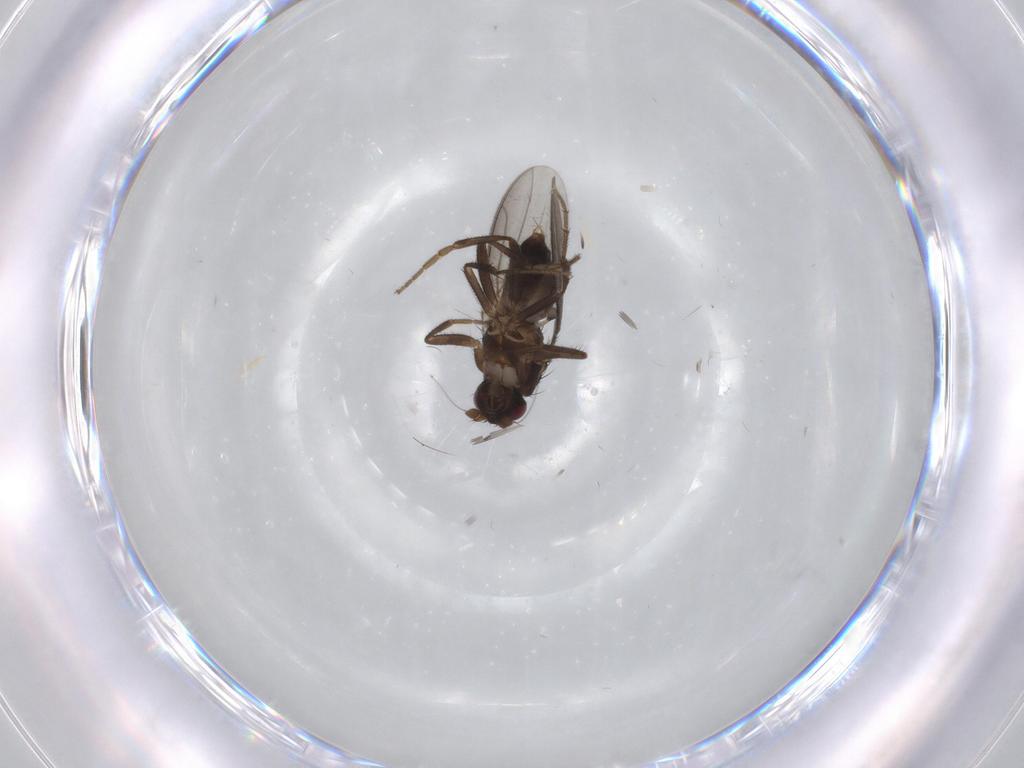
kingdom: Animalia
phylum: Arthropoda
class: Insecta
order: Diptera
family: Sphaeroceridae
